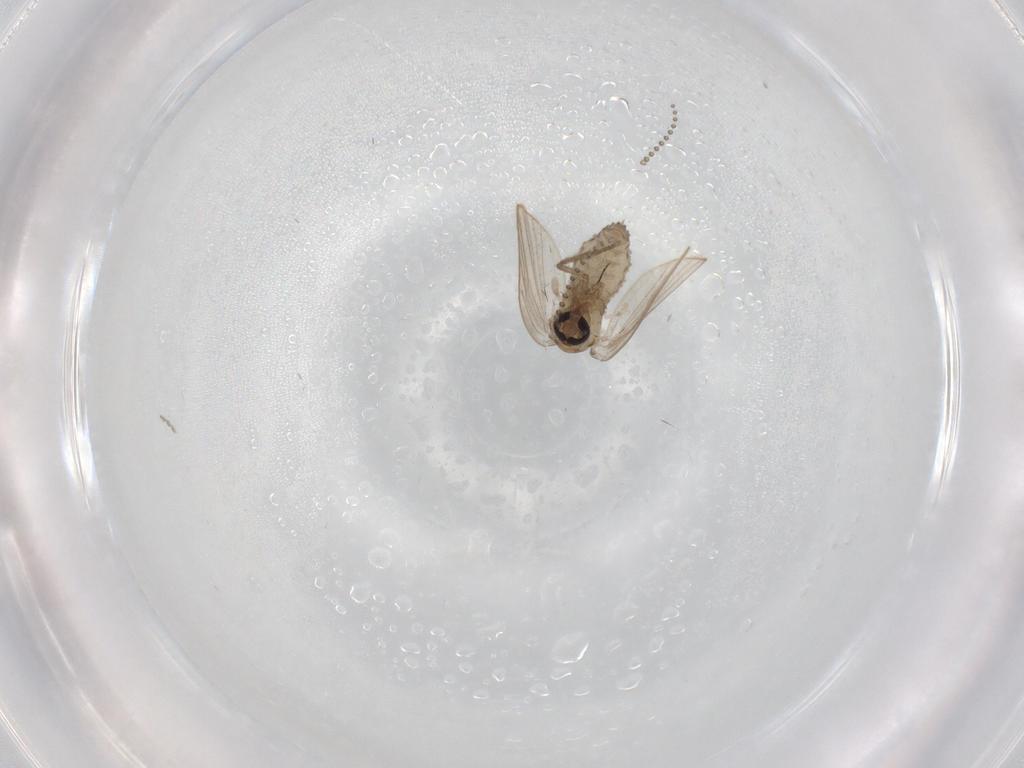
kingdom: Animalia
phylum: Arthropoda
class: Insecta
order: Diptera
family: Psychodidae
